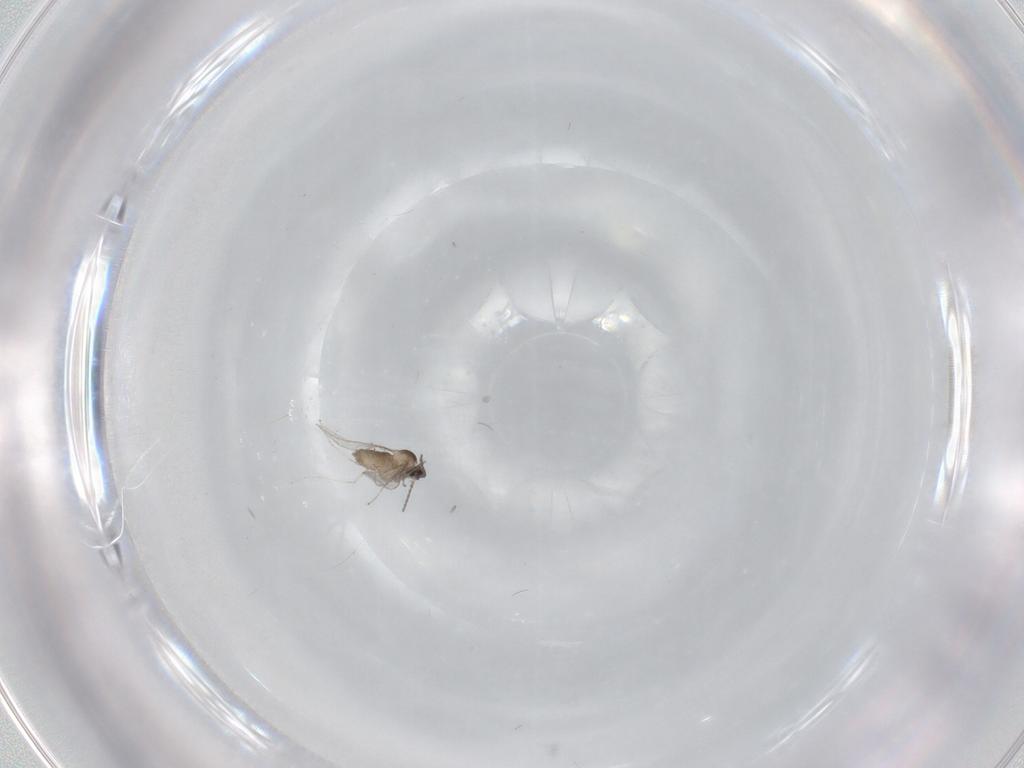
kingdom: Animalia
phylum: Arthropoda
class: Insecta
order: Diptera
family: Cecidomyiidae
